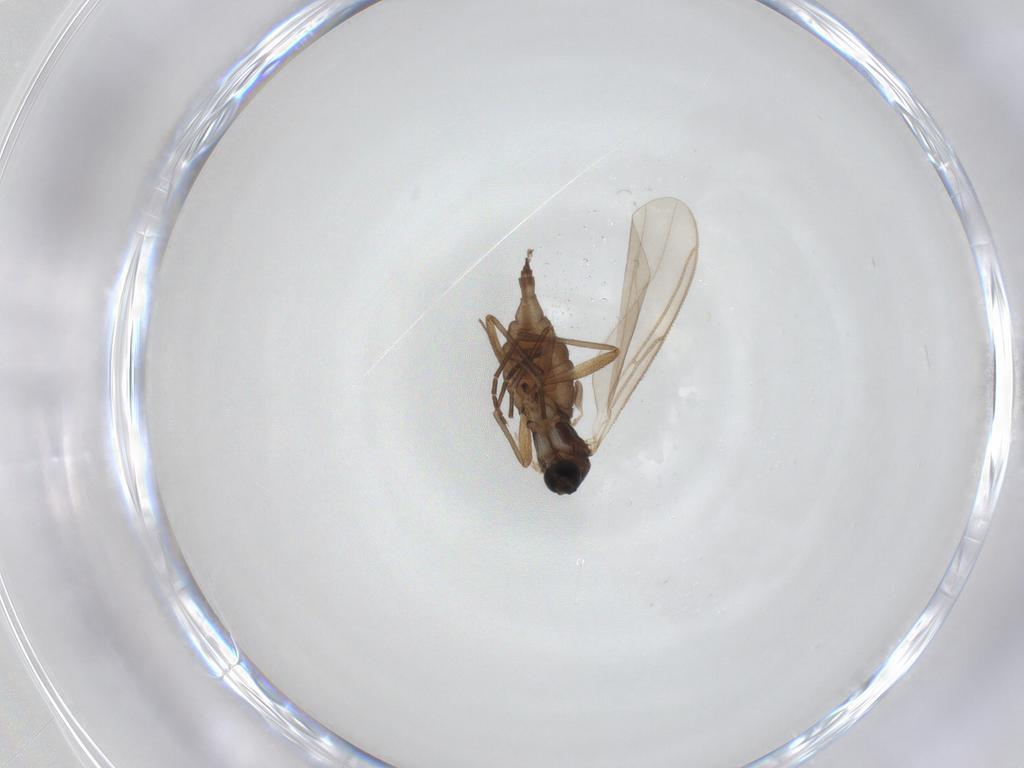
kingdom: Animalia
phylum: Arthropoda
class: Insecta
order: Diptera
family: Sciaridae
